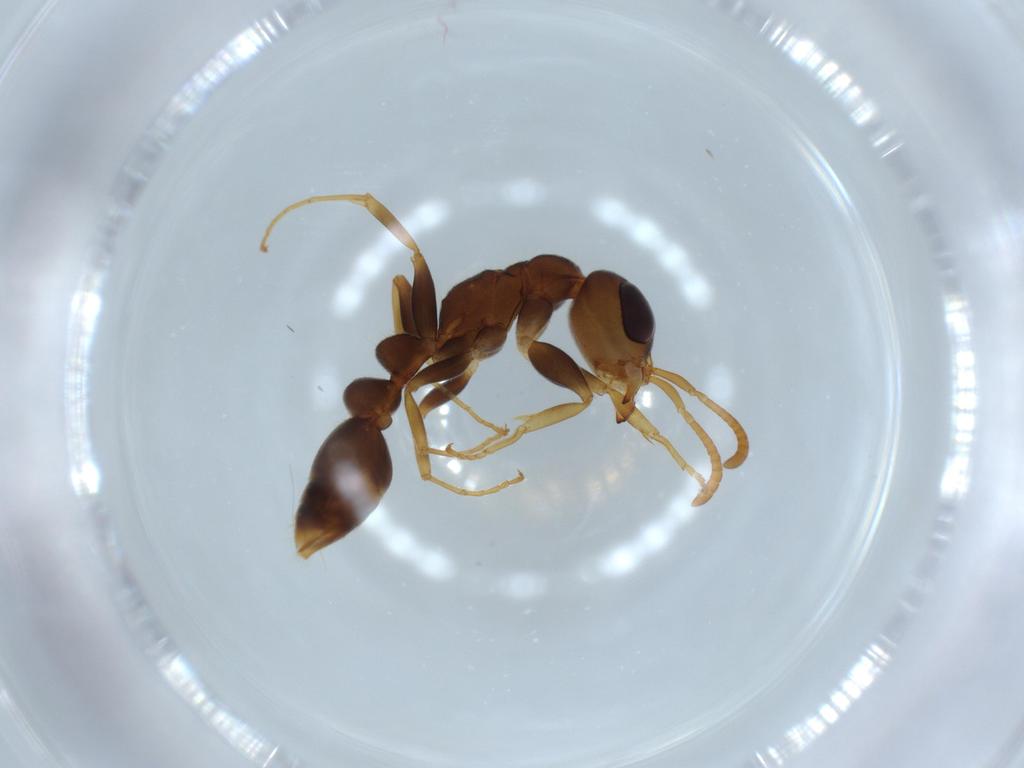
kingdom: Animalia
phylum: Arthropoda
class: Insecta
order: Hymenoptera
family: Formicidae
